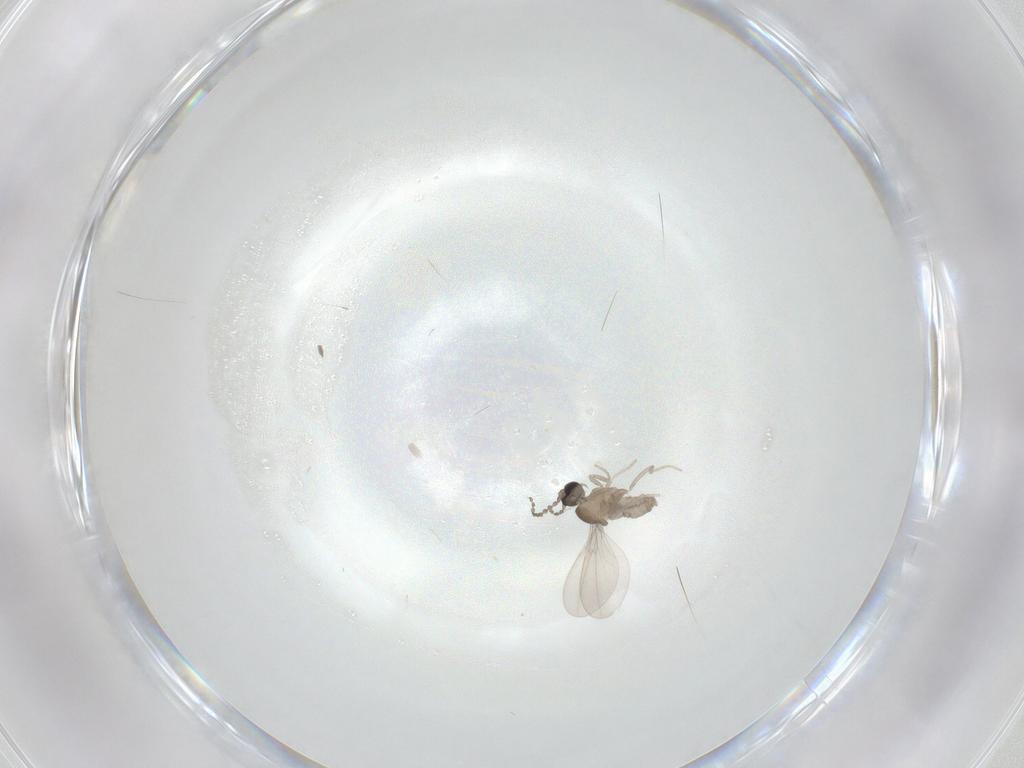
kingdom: Animalia
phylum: Arthropoda
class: Insecta
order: Diptera
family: Cecidomyiidae
